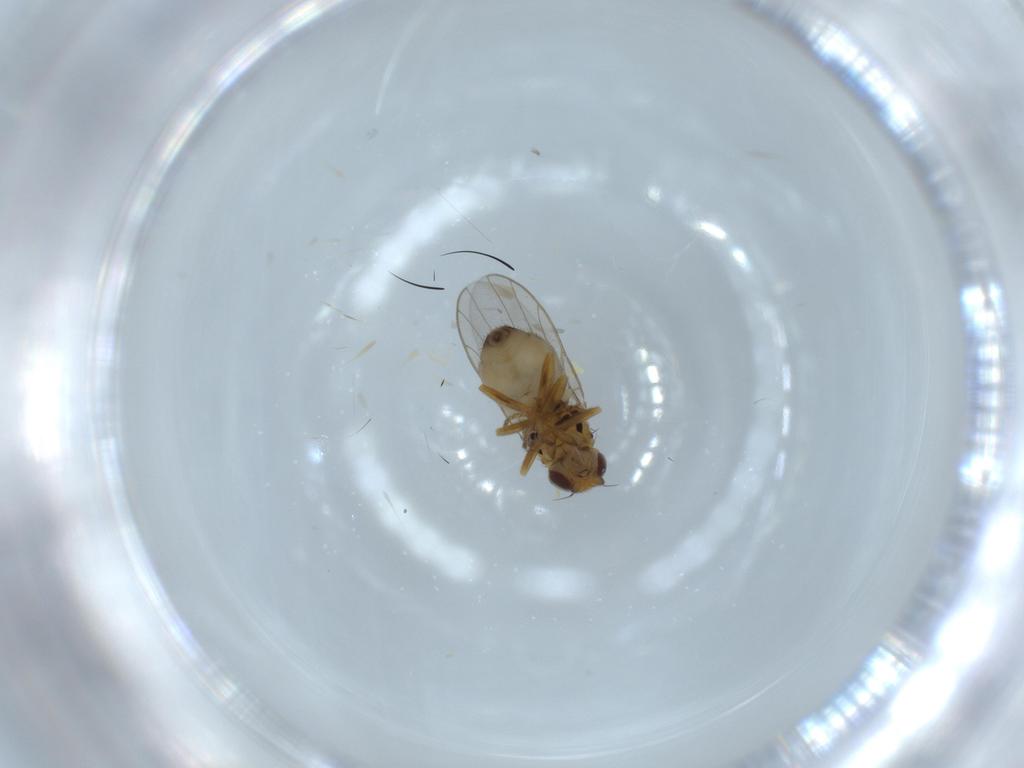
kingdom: Animalia
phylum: Arthropoda
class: Insecta
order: Diptera
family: Chloropidae
